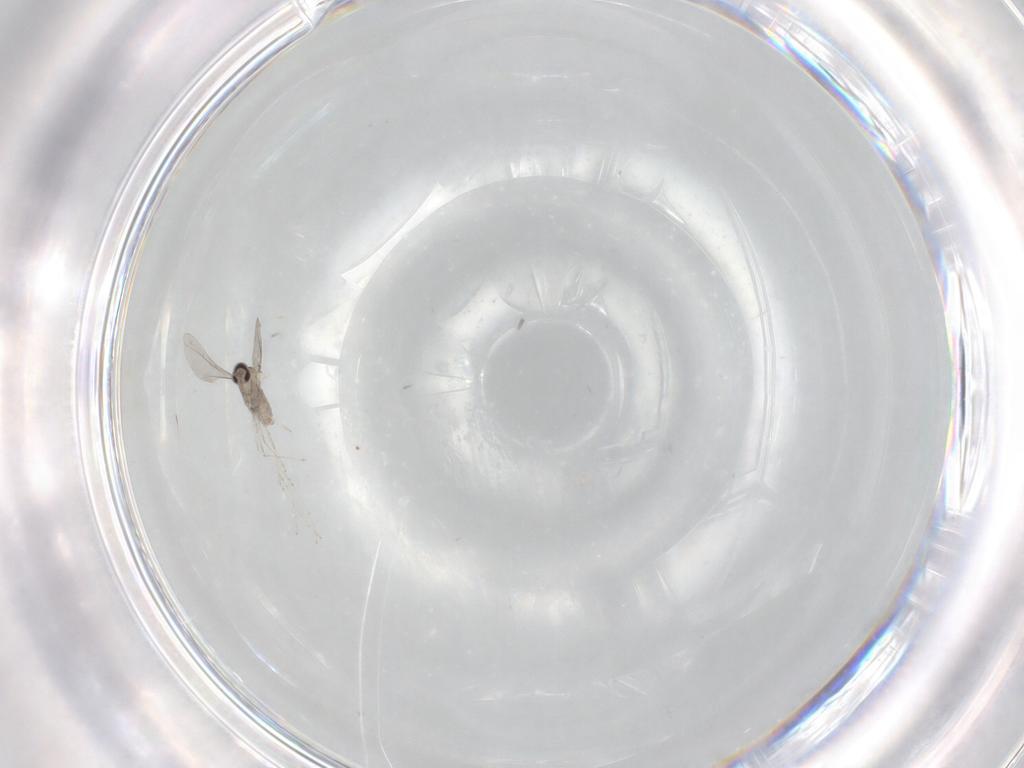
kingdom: Animalia
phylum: Arthropoda
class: Insecta
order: Diptera
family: Cecidomyiidae
